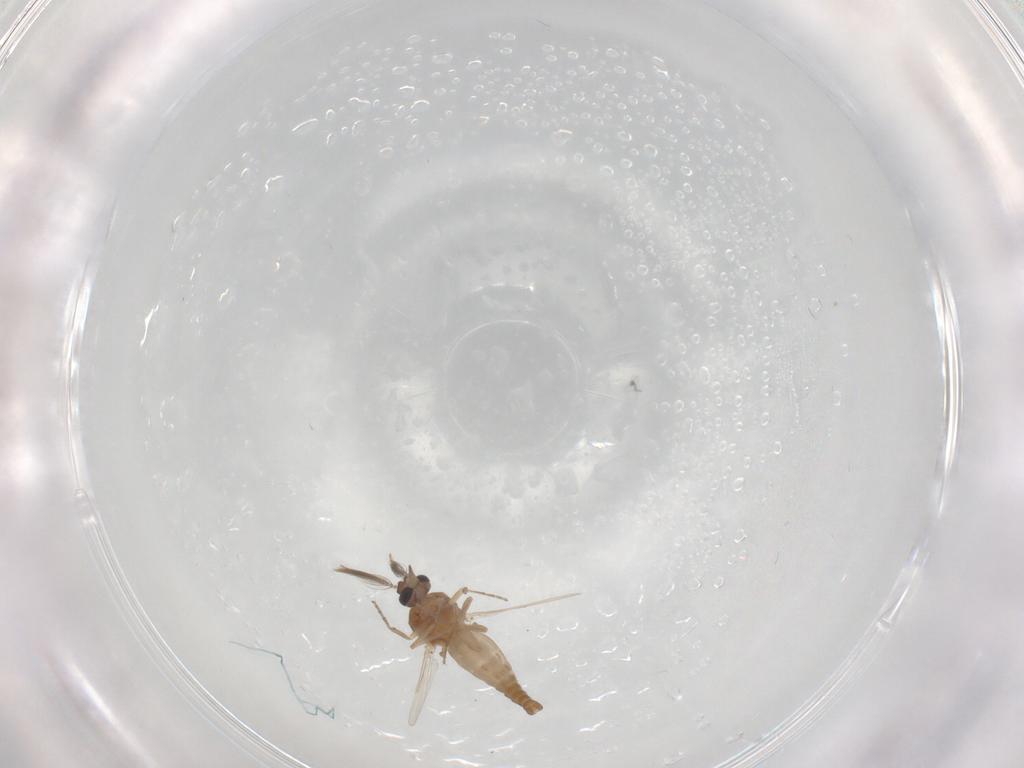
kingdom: Animalia
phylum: Arthropoda
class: Insecta
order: Diptera
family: Ceratopogonidae
